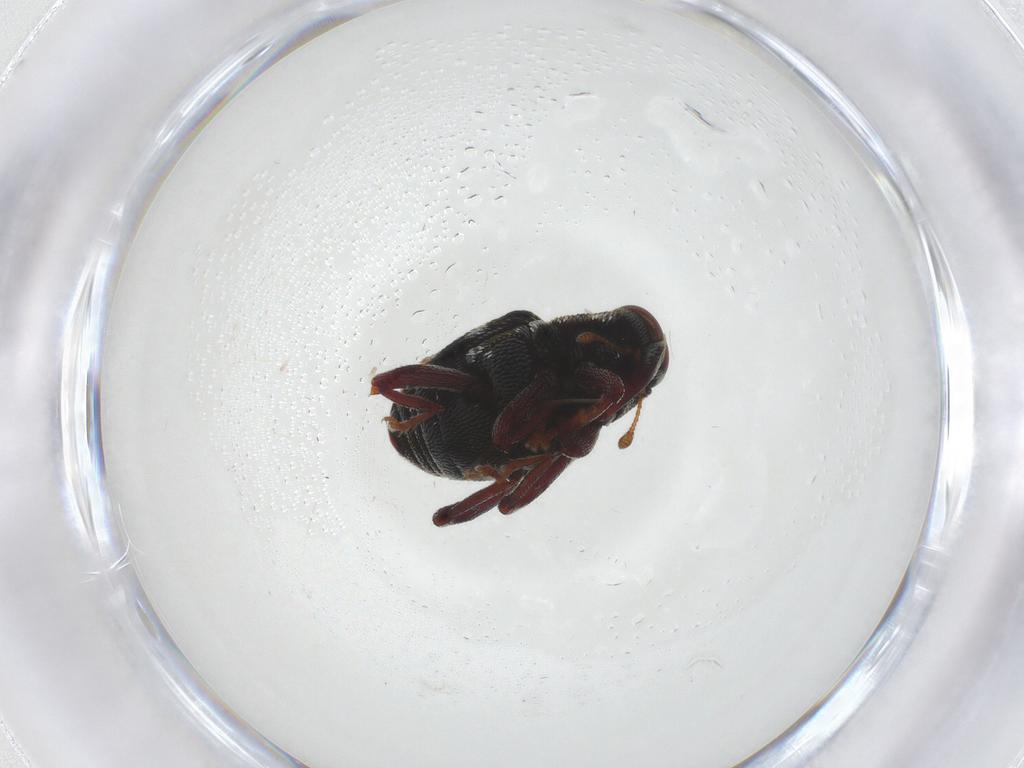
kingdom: Animalia
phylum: Arthropoda
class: Insecta
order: Coleoptera
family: Curculionidae
